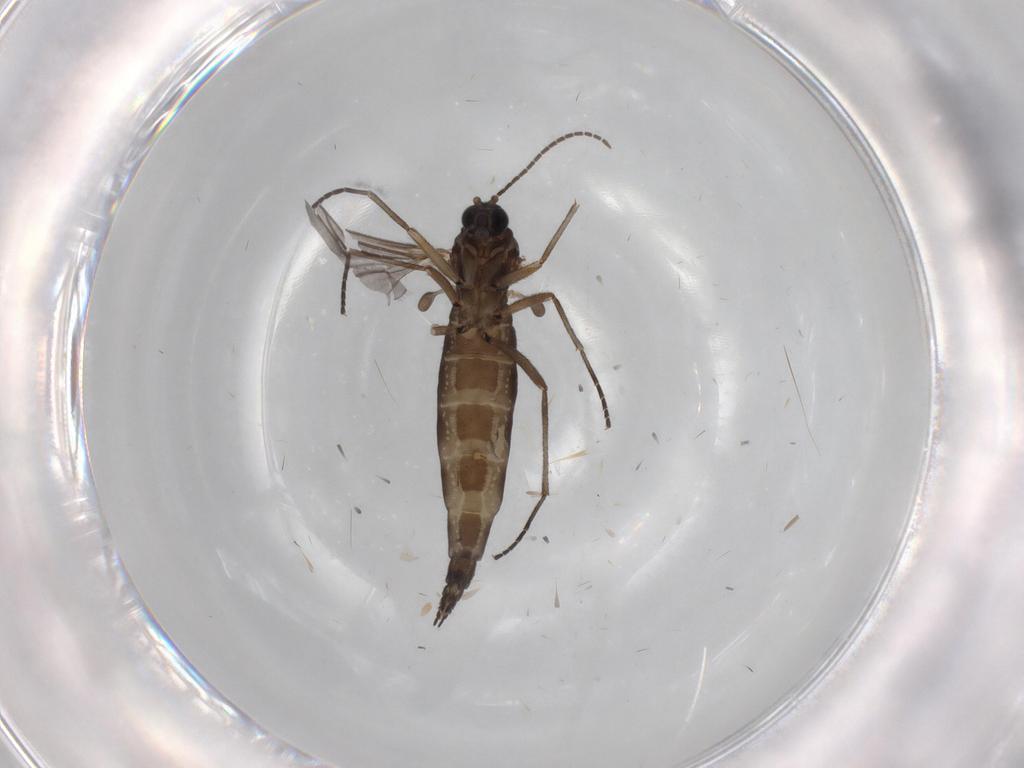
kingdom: Animalia
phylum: Arthropoda
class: Insecta
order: Diptera
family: Sciaridae
